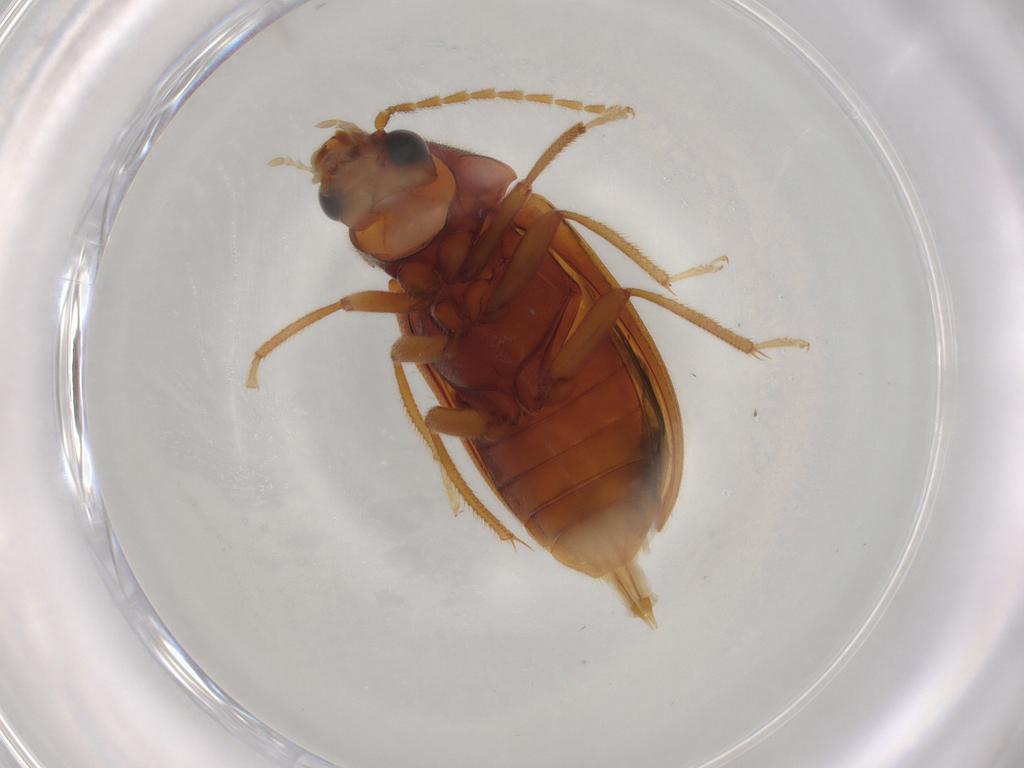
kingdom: Animalia
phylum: Arthropoda
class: Insecta
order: Coleoptera
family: Ptilodactylidae
